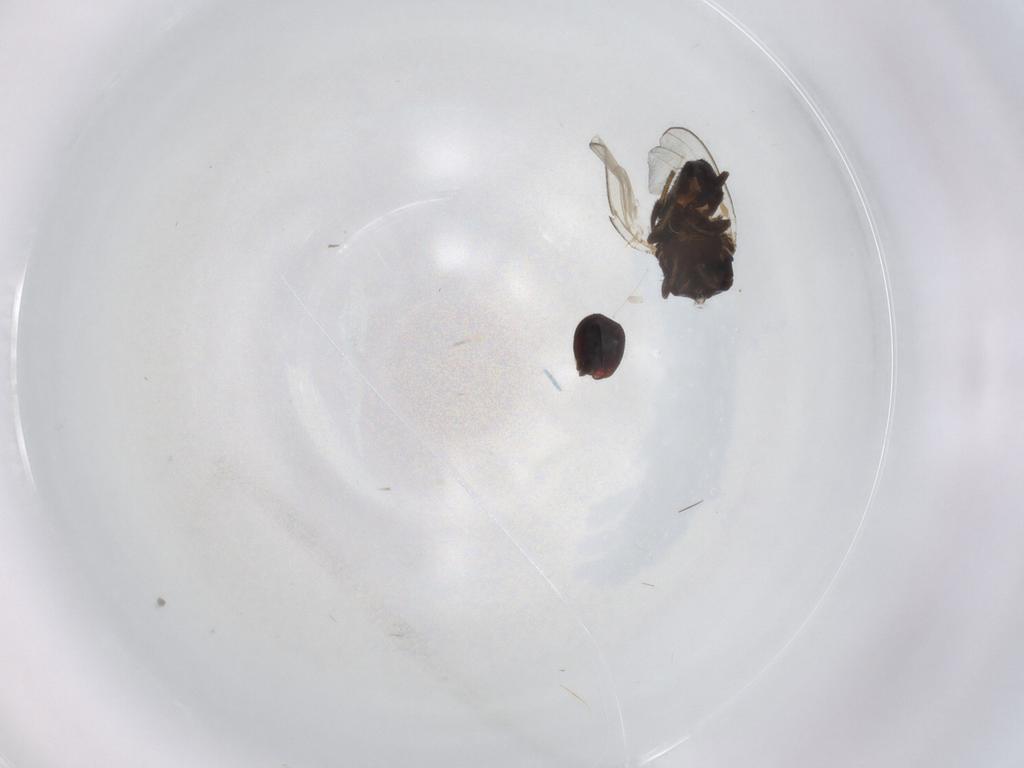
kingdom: Animalia
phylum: Arthropoda
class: Insecta
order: Diptera
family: Milichiidae
